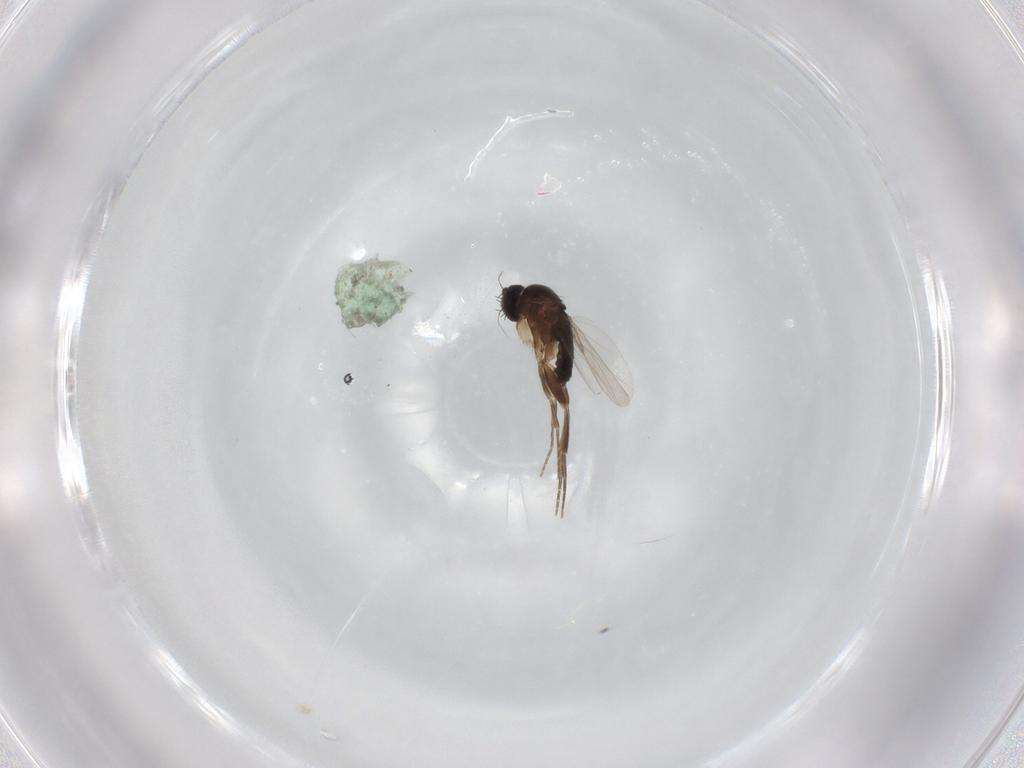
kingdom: Animalia
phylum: Arthropoda
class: Insecta
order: Diptera
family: Phoridae
